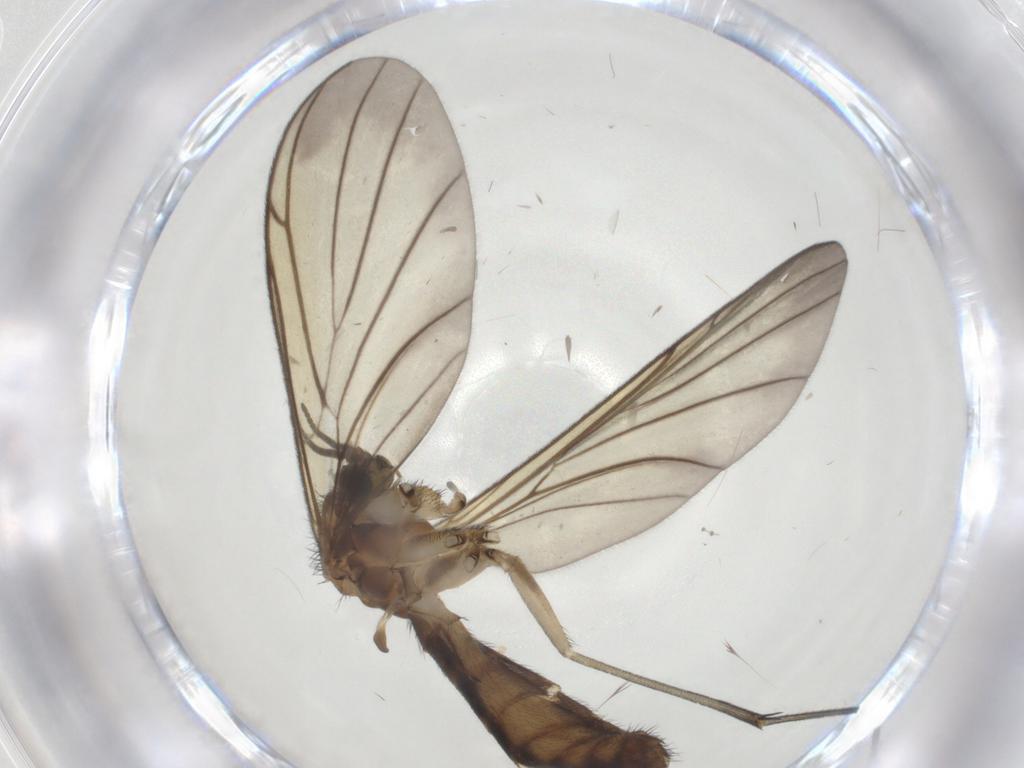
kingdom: Animalia
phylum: Arthropoda
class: Insecta
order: Diptera
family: Keroplatidae
